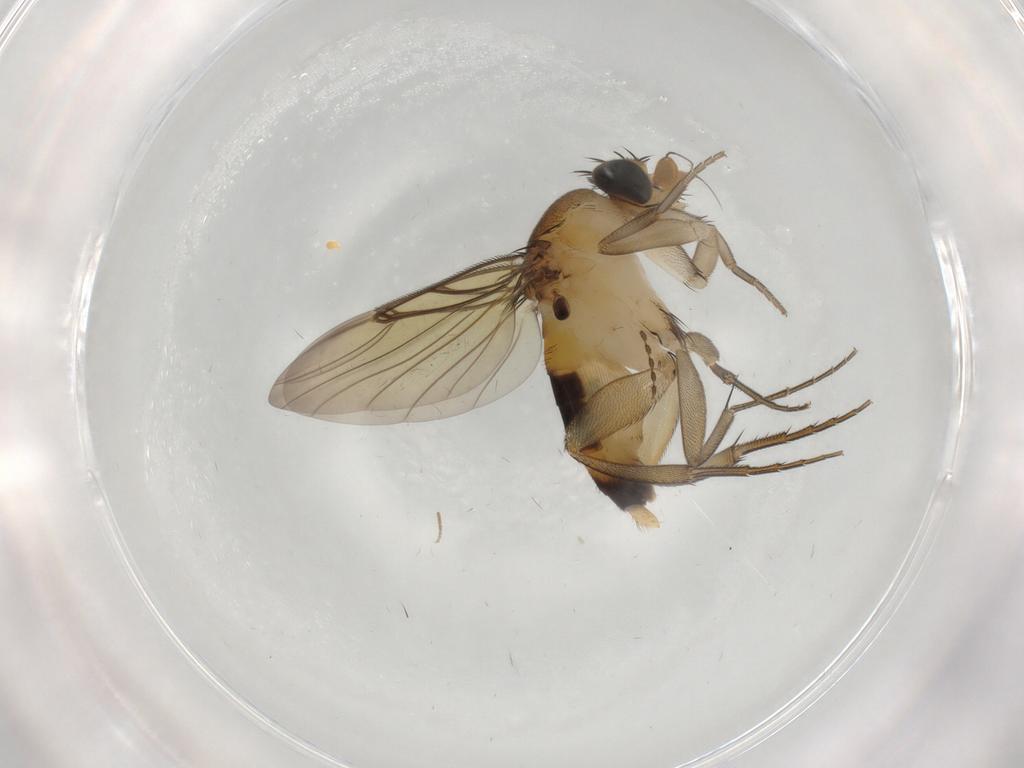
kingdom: Animalia
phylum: Arthropoda
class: Insecta
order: Diptera
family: Phoridae
